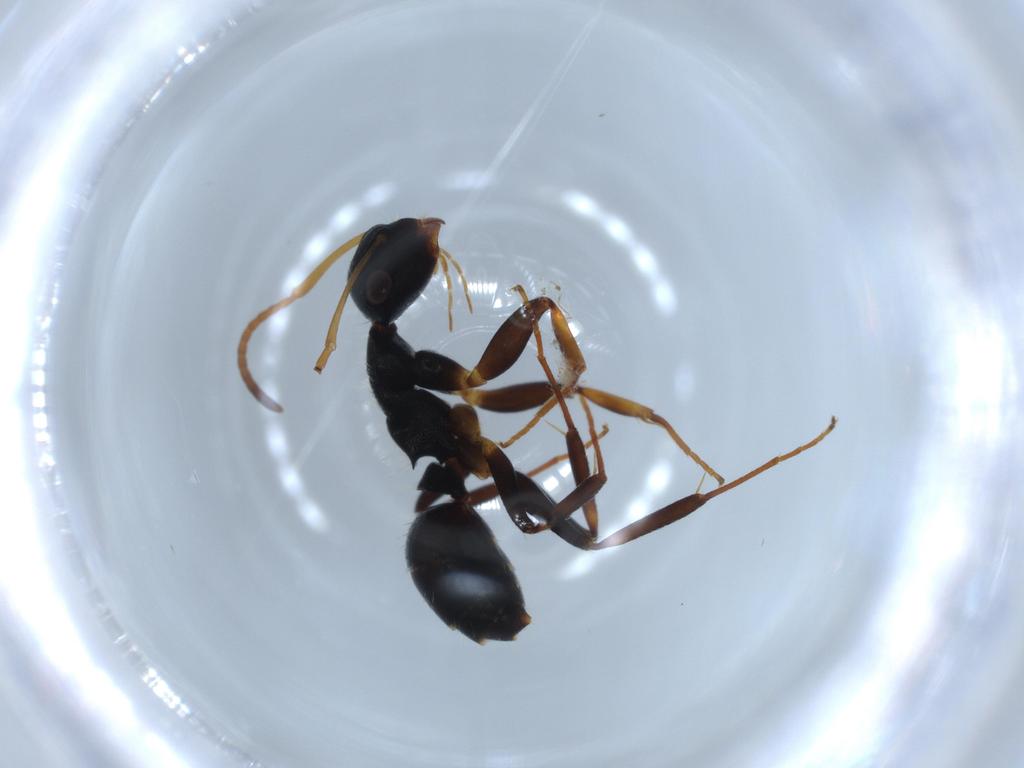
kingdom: Animalia
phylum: Arthropoda
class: Insecta
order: Hymenoptera
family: Formicidae
